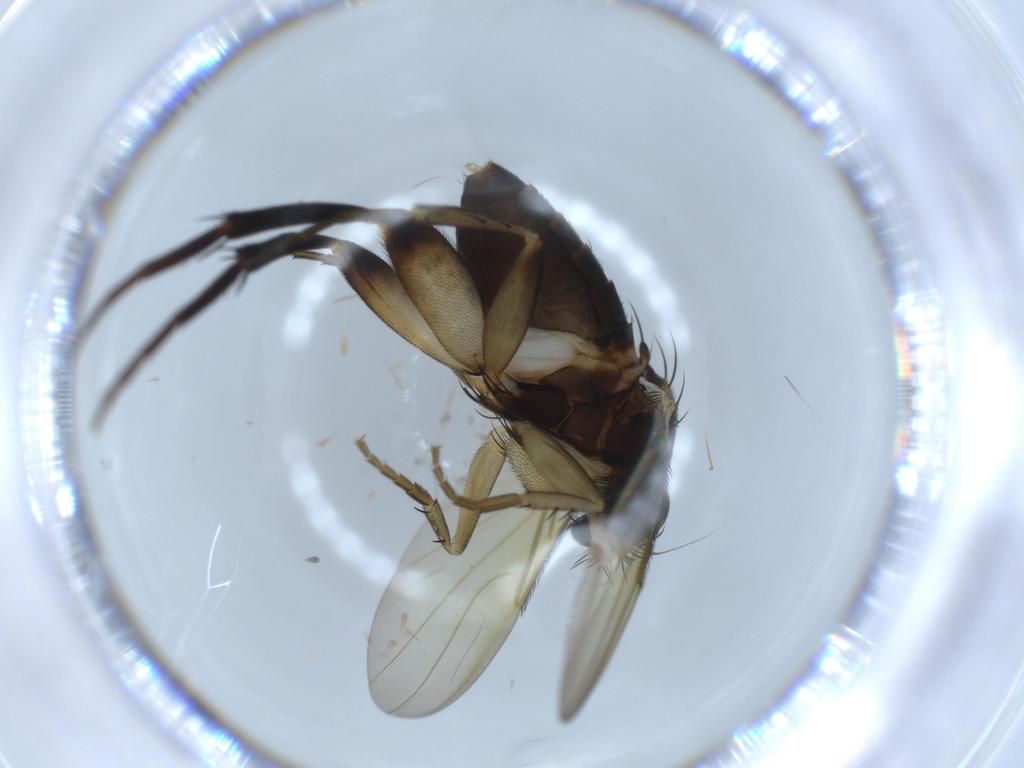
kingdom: Animalia
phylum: Arthropoda
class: Insecta
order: Diptera
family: Phoridae
